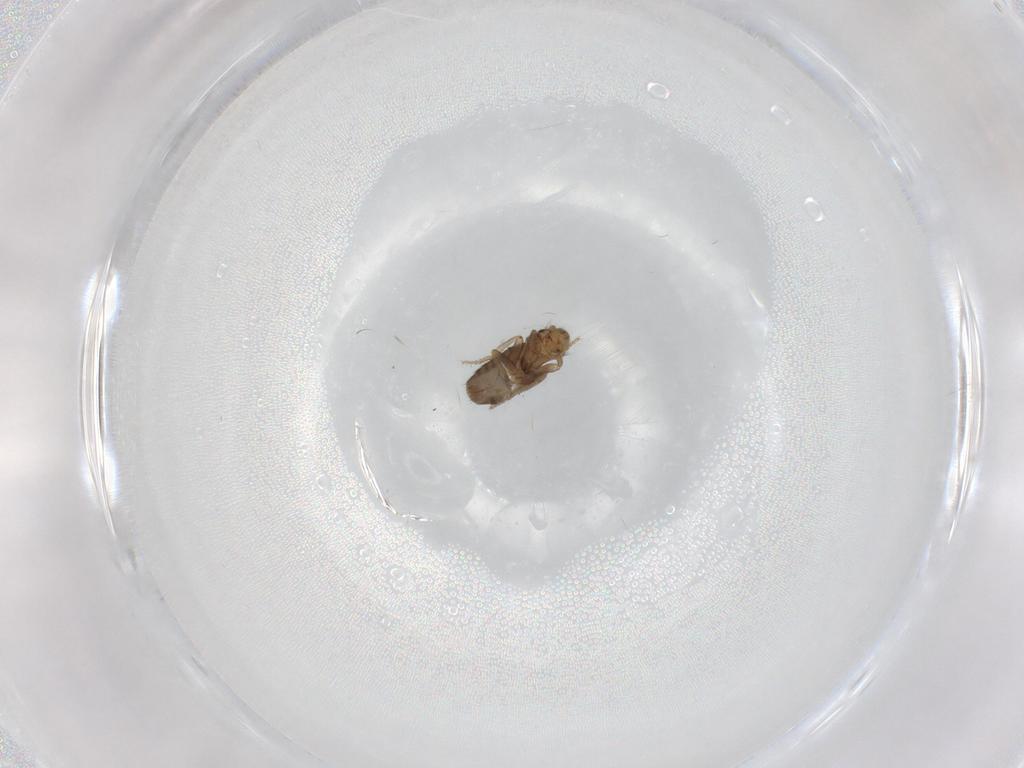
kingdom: Animalia
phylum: Arthropoda
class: Insecta
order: Diptera
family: Phoridae
